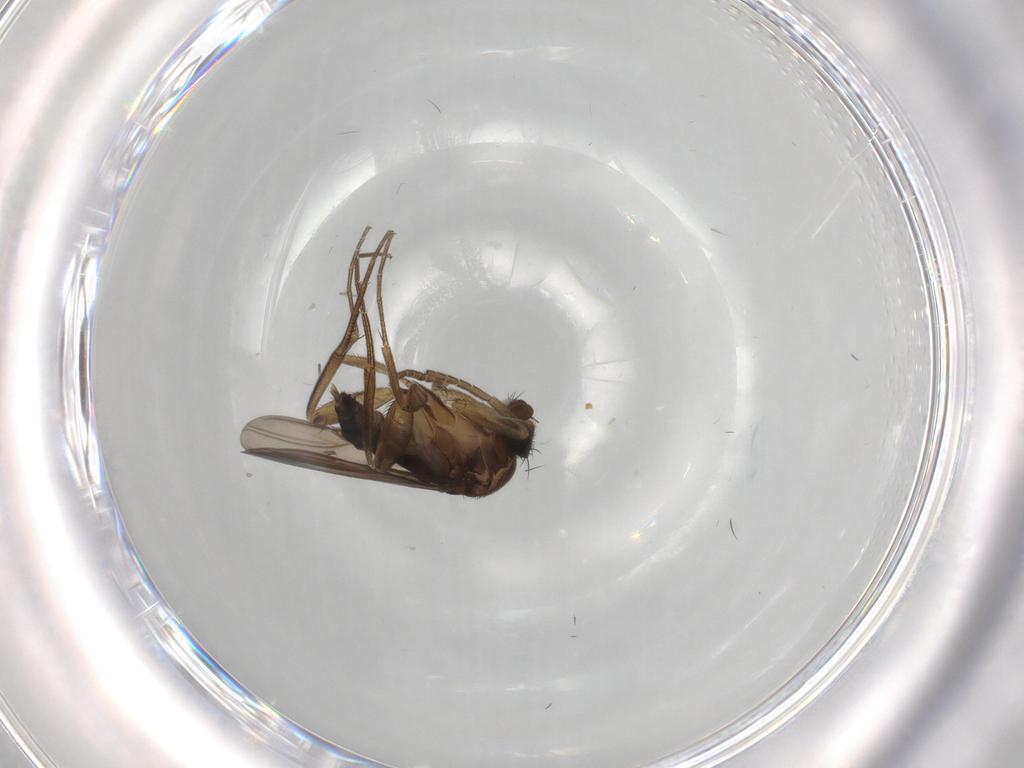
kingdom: Animalia
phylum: Arthropoda
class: Insecta
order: Diptera
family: Phoridae
